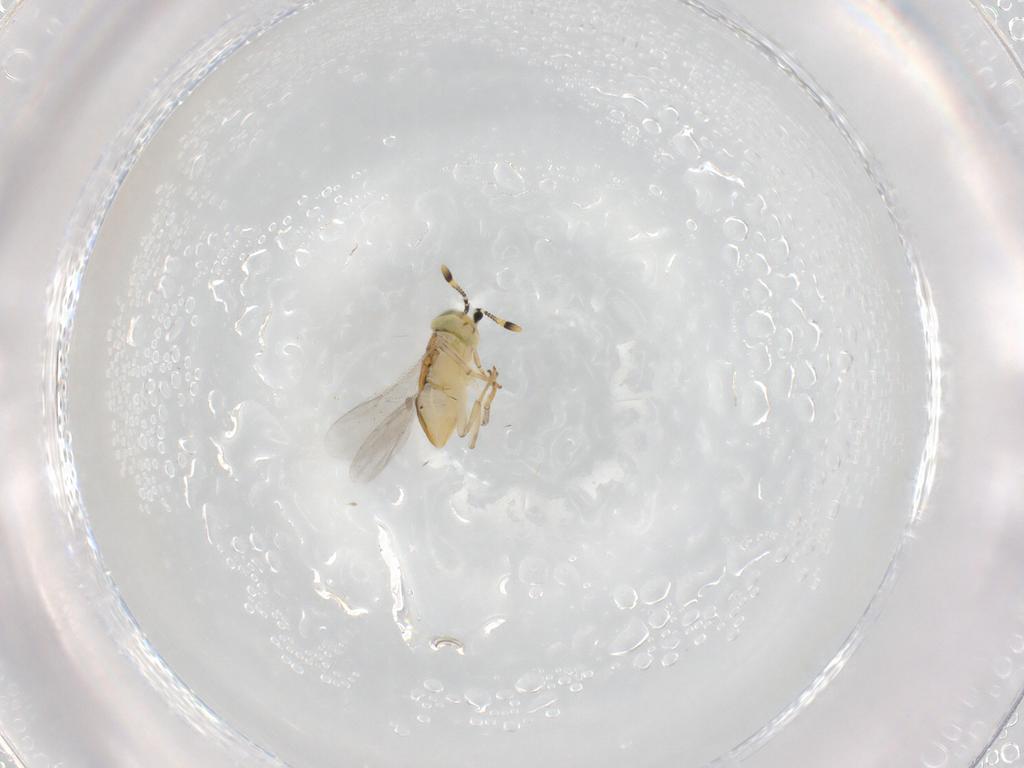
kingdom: Animalia
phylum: Arthropoda
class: Insecta
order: Hymenoptera
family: Encyrtidae
